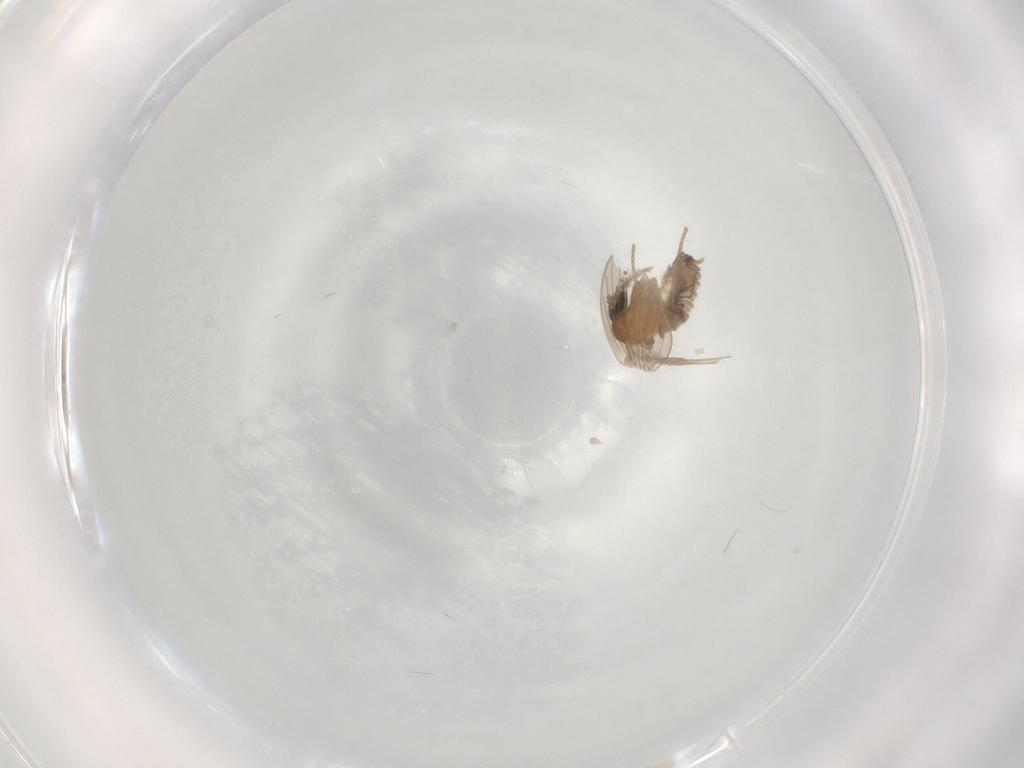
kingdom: Animalia
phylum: Arthropoda
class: Insecta
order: Diptera
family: Psychodidae
